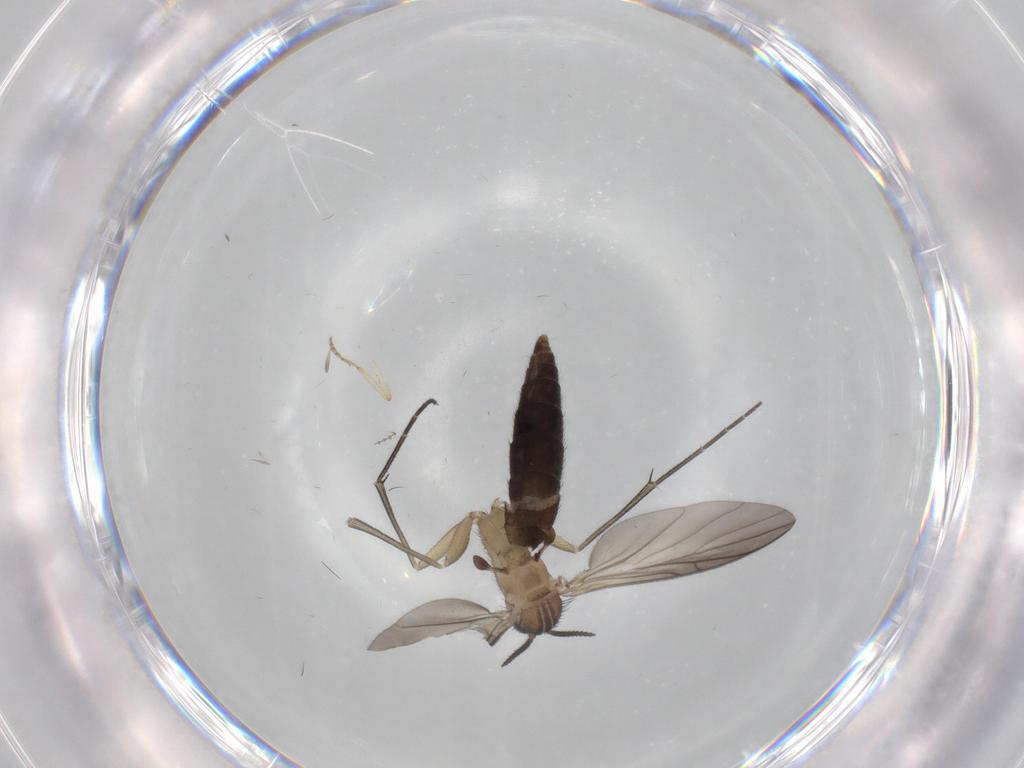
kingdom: Animalia
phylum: Arthropoda
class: Insecta
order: Diptera
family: Keroplatidae
